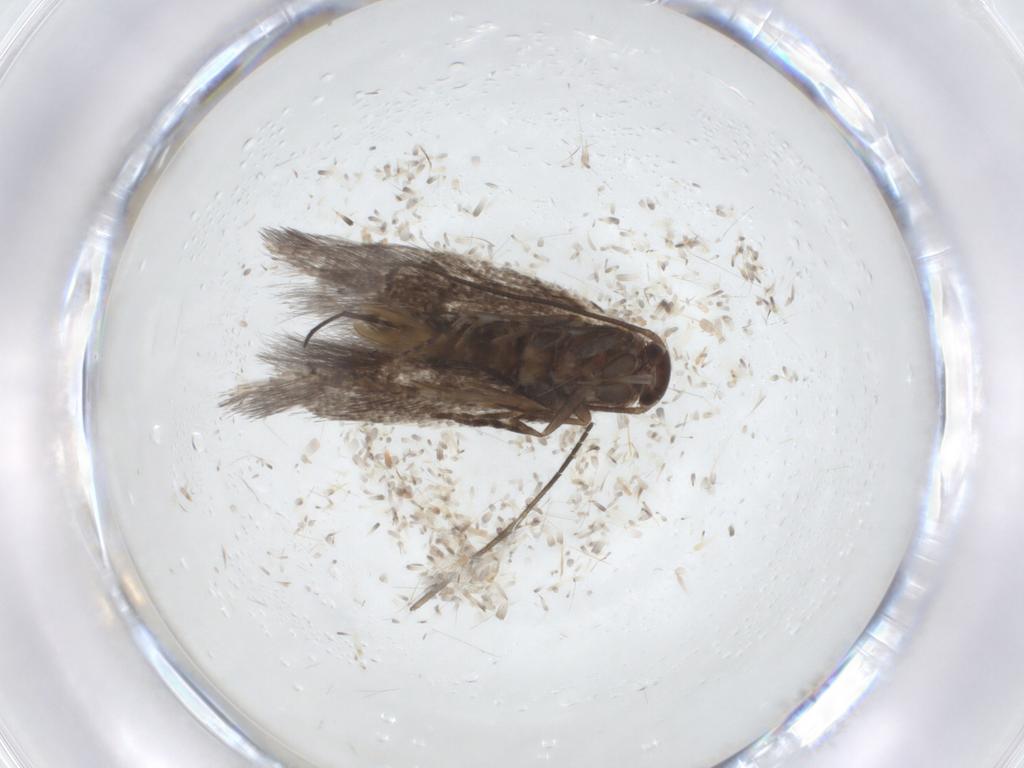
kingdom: Animalia
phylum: Arthropoda
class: Insecta
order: Lepidoptera
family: Elachistidae
